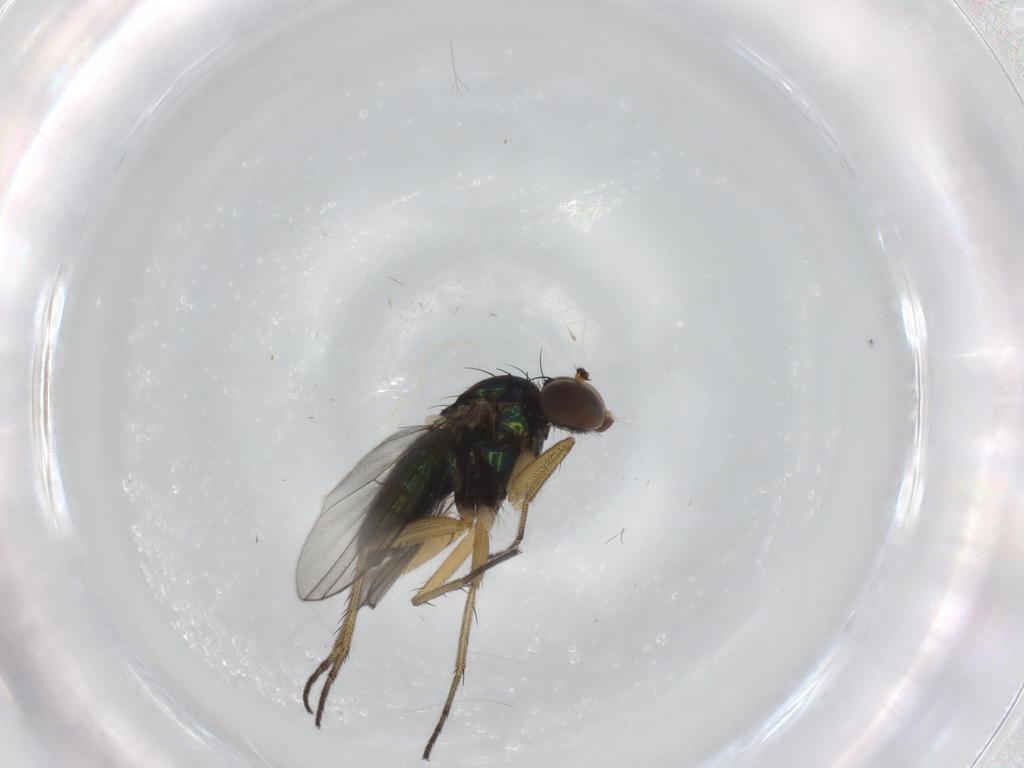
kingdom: Animalia
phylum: Arthropoda
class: Insecta
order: Diptera
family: Dolichopodidae
